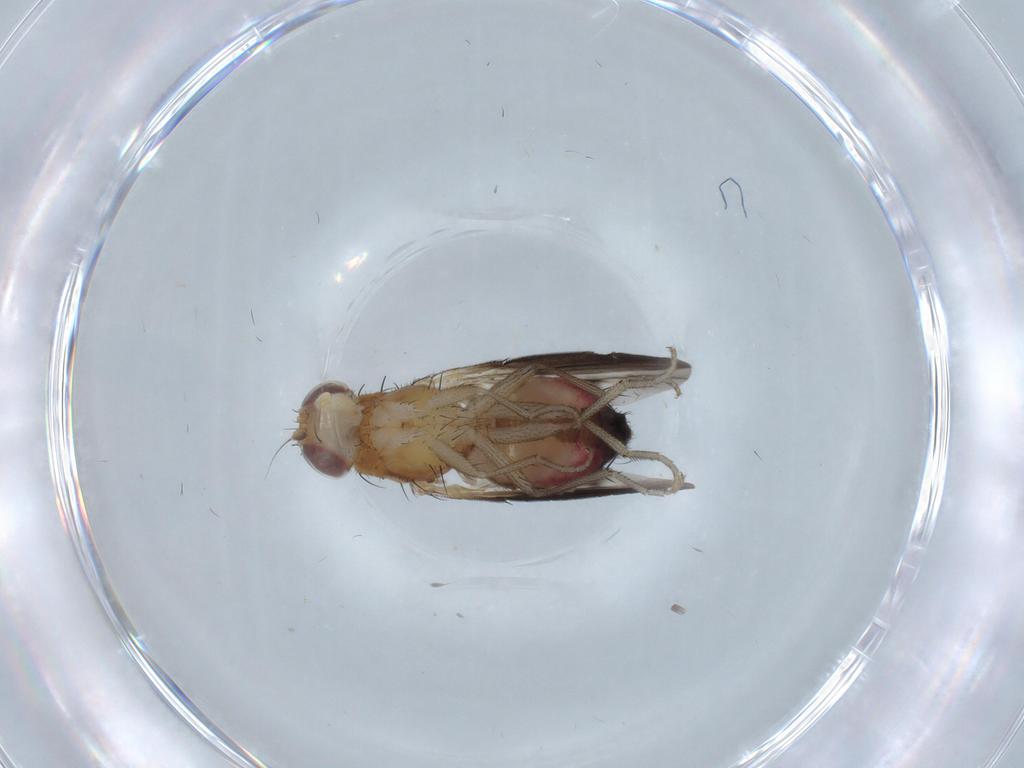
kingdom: Animalia
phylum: Arthropoda
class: Insecta
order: Diptera
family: Heleomyzidae
